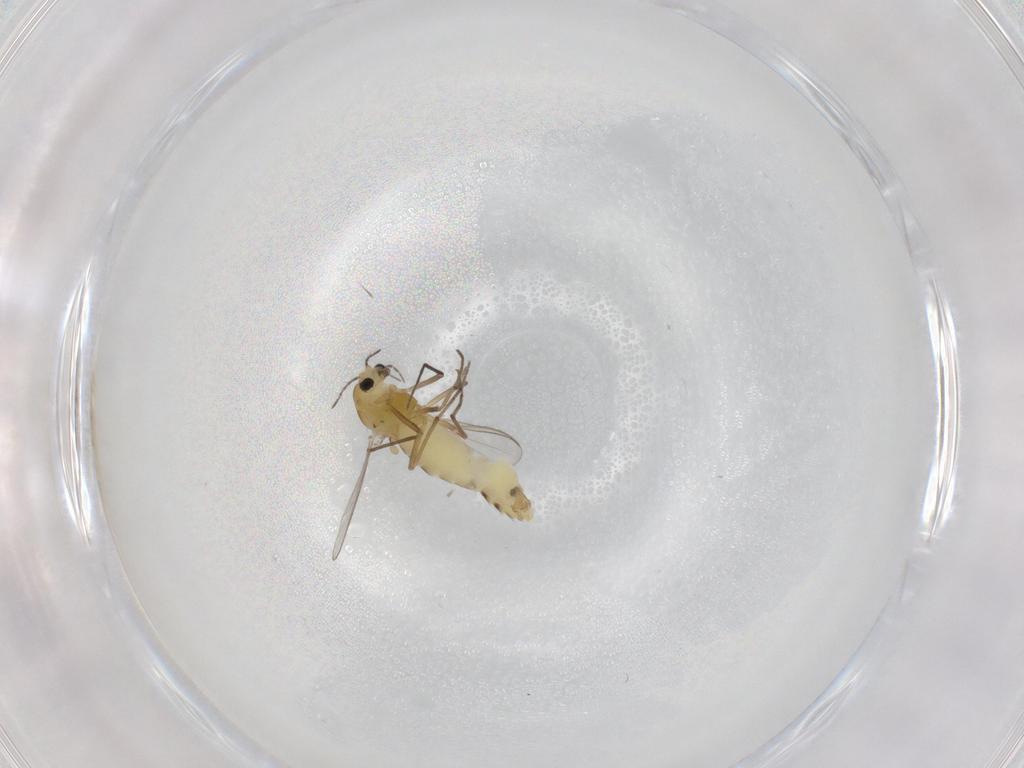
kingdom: Animalia
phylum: Arthropoda
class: Insecta
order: Diptera
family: Chironomidae
